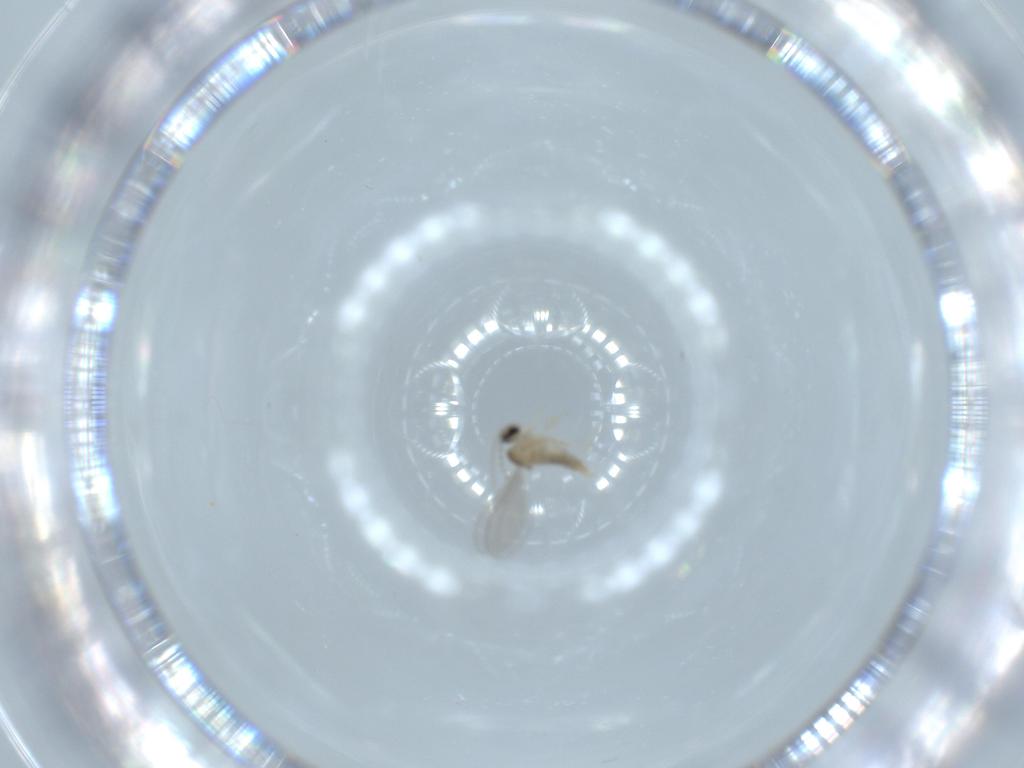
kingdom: Animalia
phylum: Arthropoda
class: Insecta
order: Diptera
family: Cecidomyiidae
